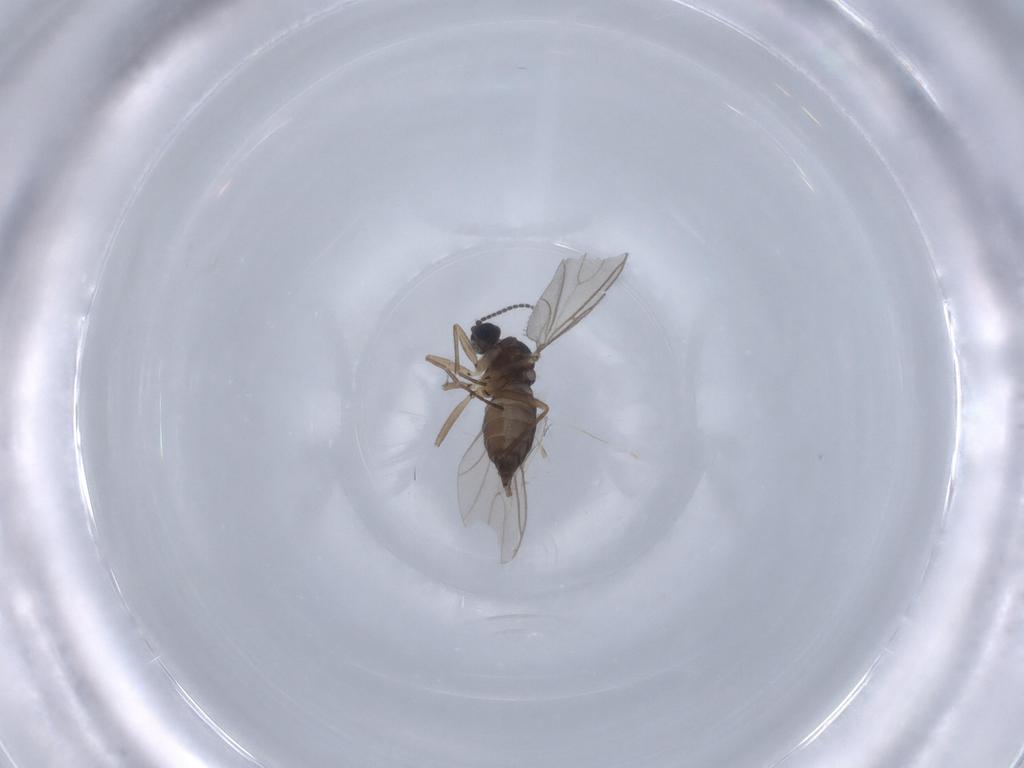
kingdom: Animalia
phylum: Arthropoda
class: Insecta
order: Diptera
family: Sciaridae
